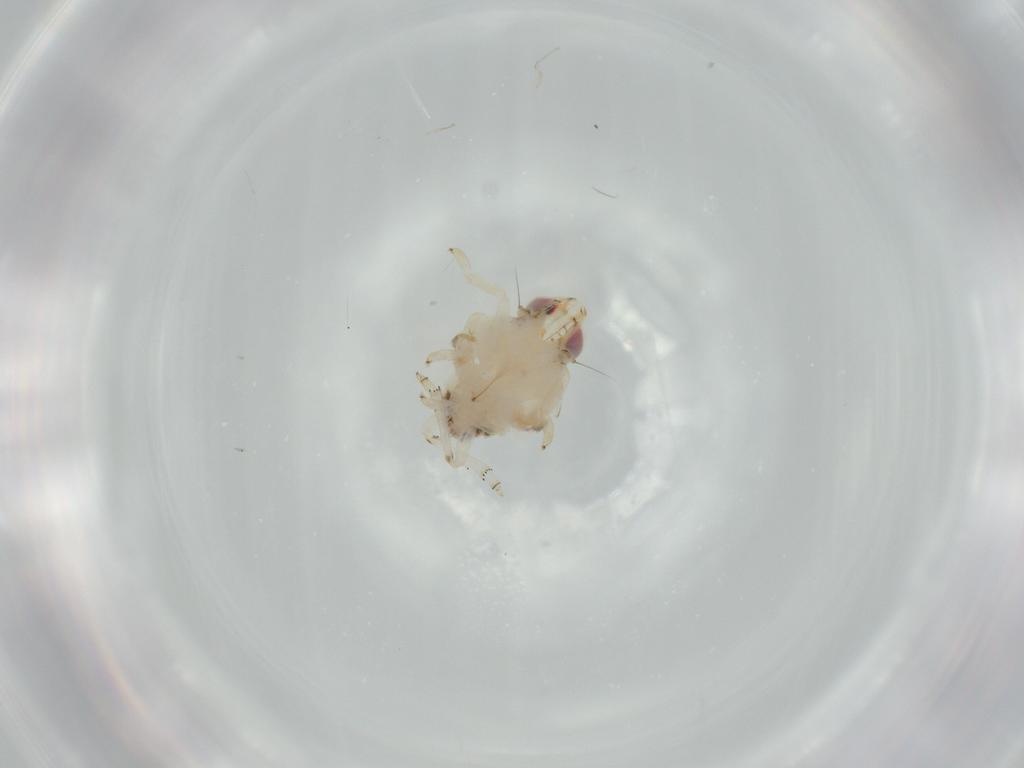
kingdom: Animalia
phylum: Arthropoda
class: Insecta
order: Hemiptera
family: Nogodinidae
